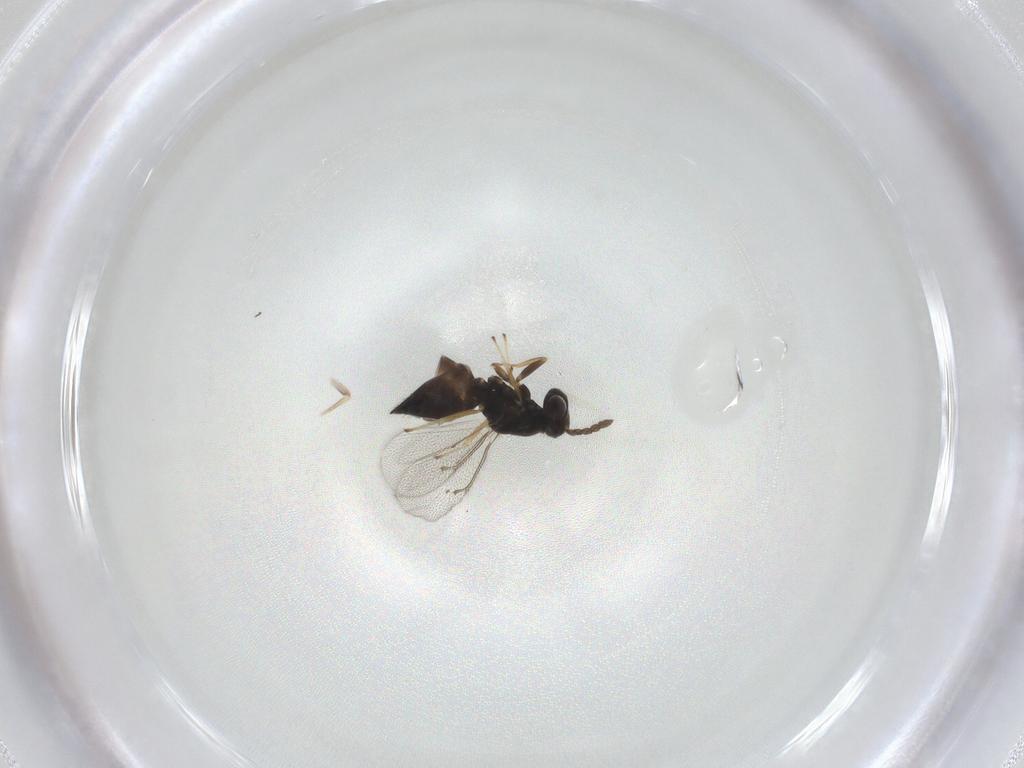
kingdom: Animalia
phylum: Arthropoda
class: Insecta
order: Hymenoptera
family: Eulophidae
